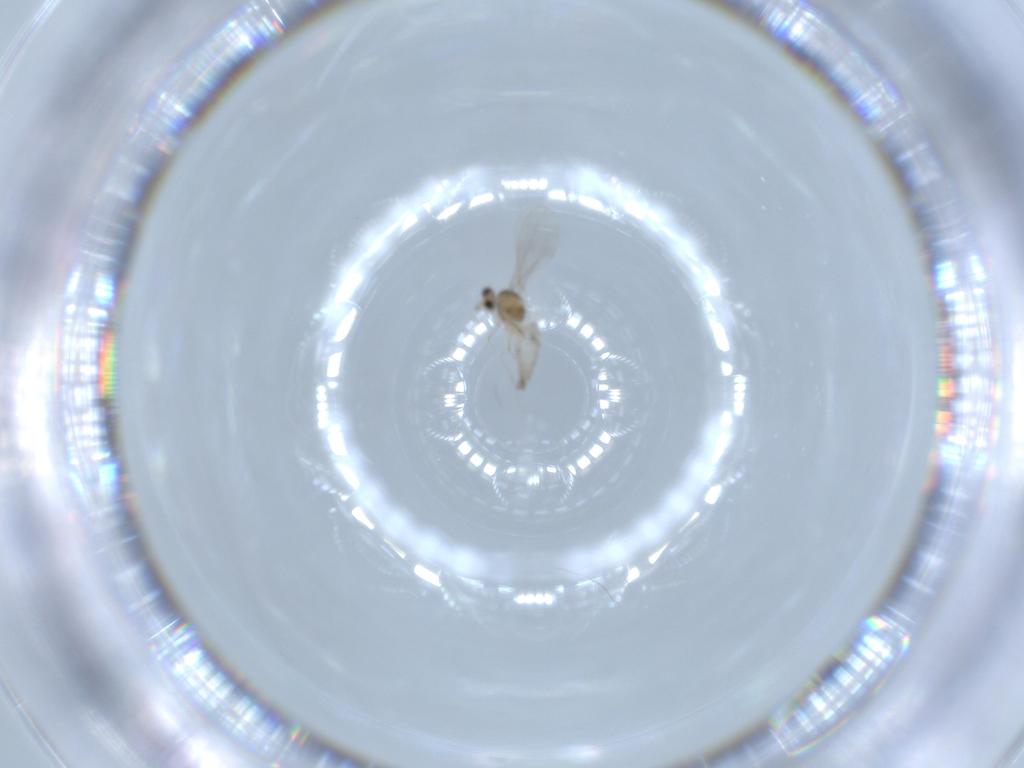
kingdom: Animalia
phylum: Arthropoda
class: Insecta
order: Diptera
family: Cecidomyiidae
